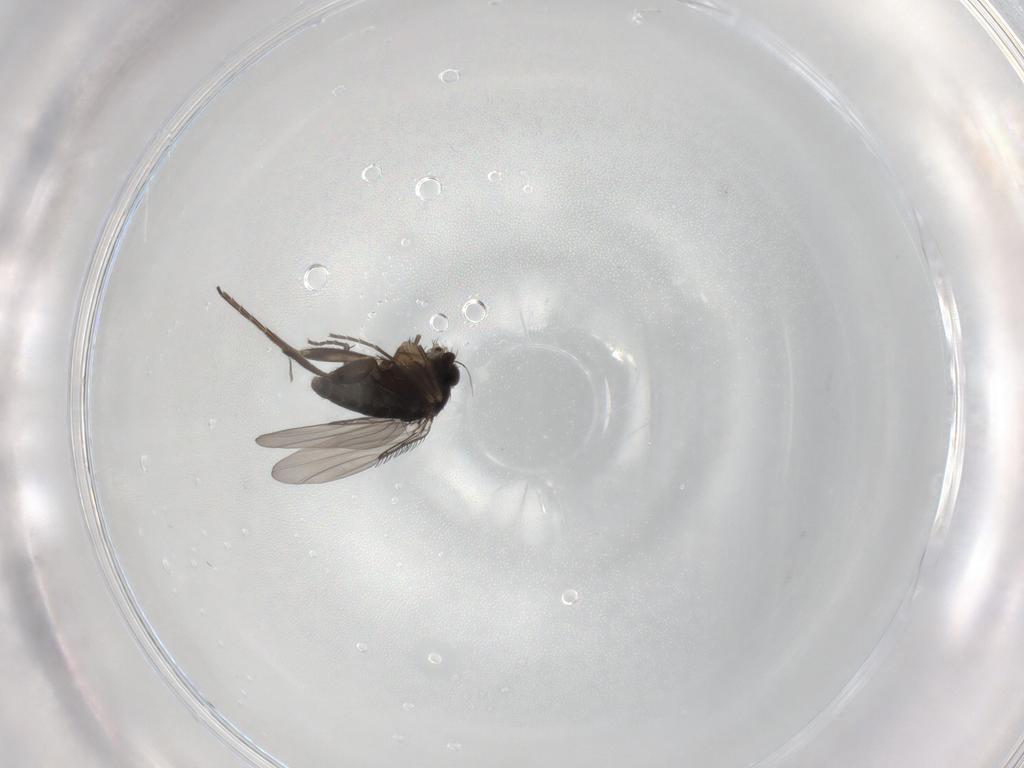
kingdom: Animalia
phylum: Arthropoda
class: Insecta
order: Diptera
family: Phoridae
